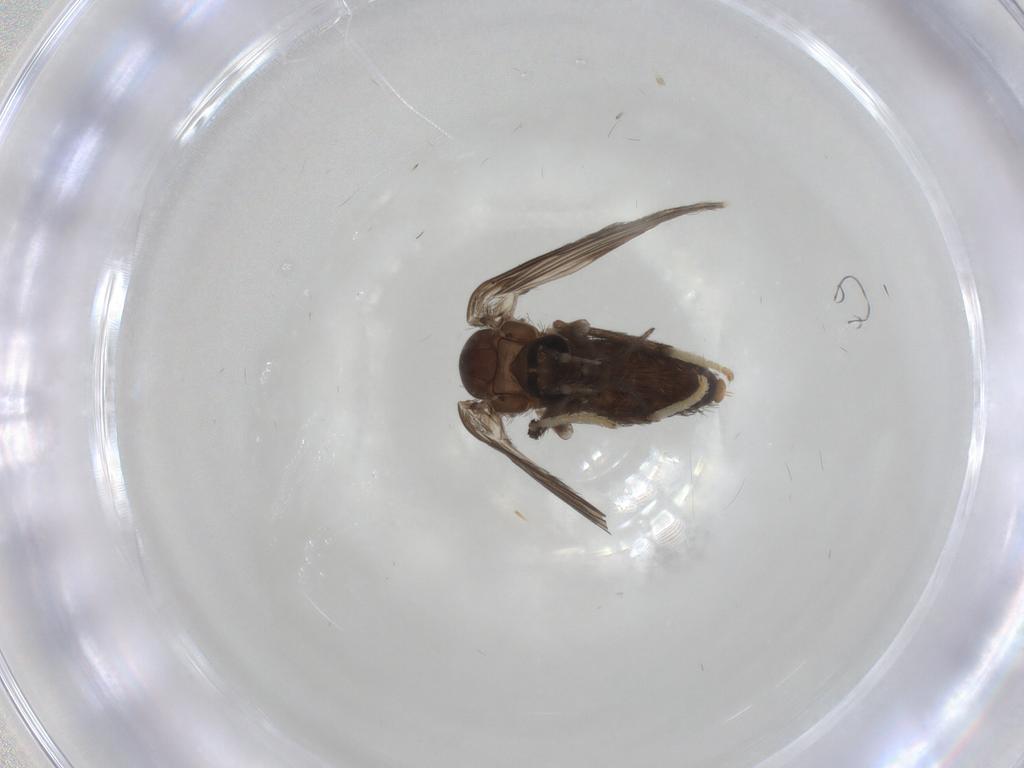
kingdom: Animalia
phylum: Arthropoda
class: Insecta
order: Diptera
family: Psychodidae
